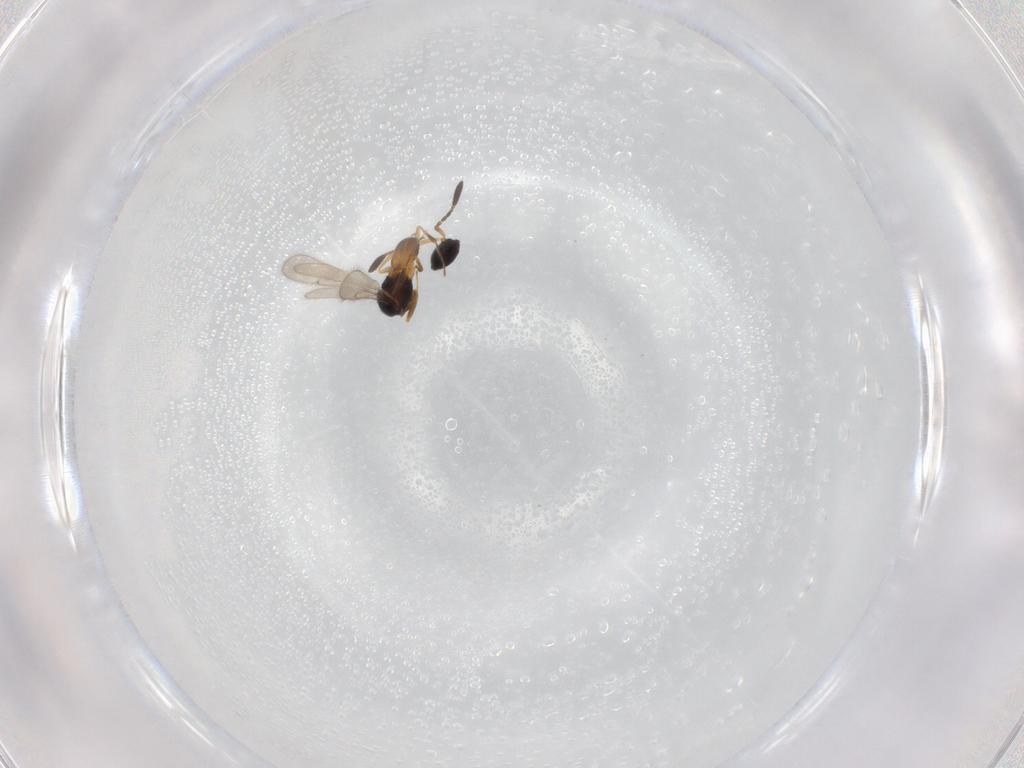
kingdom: Animalia
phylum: Arthropoda
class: Insecta
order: Hymenoptera
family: Scelionidae
